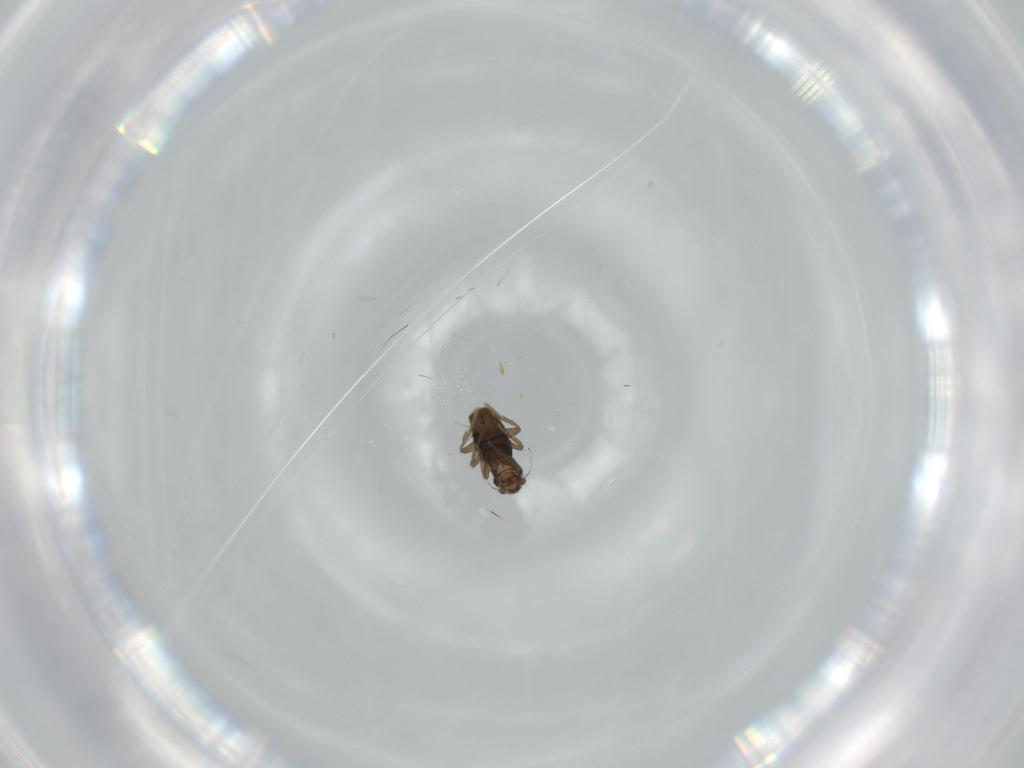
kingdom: Animalia
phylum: Arthropoda
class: Insecta
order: Diptera
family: Phoridae
